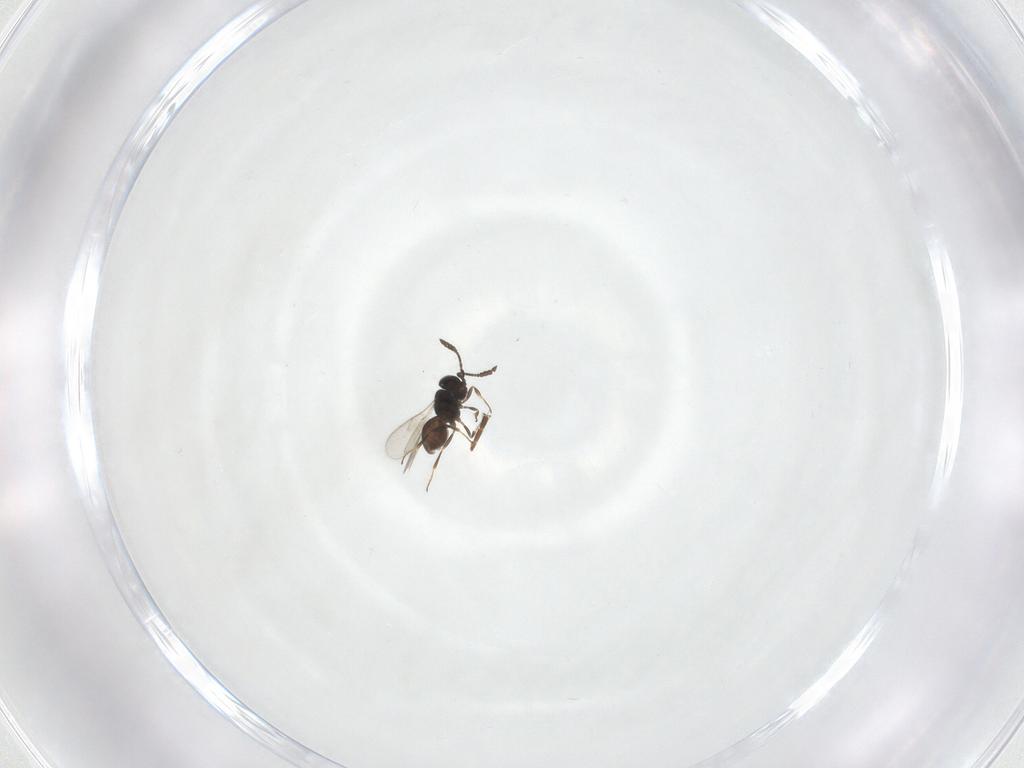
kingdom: Animalia
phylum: Arthropoda
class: Insecta
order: Hymenoptera
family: Scelionidae
